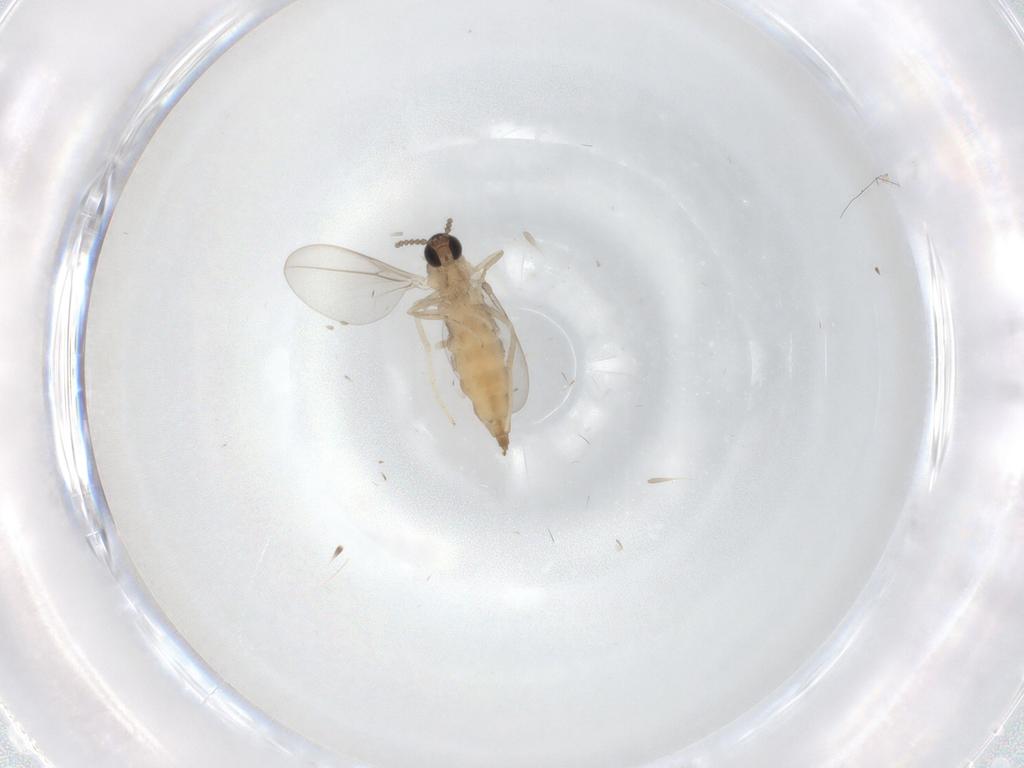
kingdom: Animalia
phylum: Arthropoda
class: Insecta
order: Diptera
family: Cecidomyiidae
